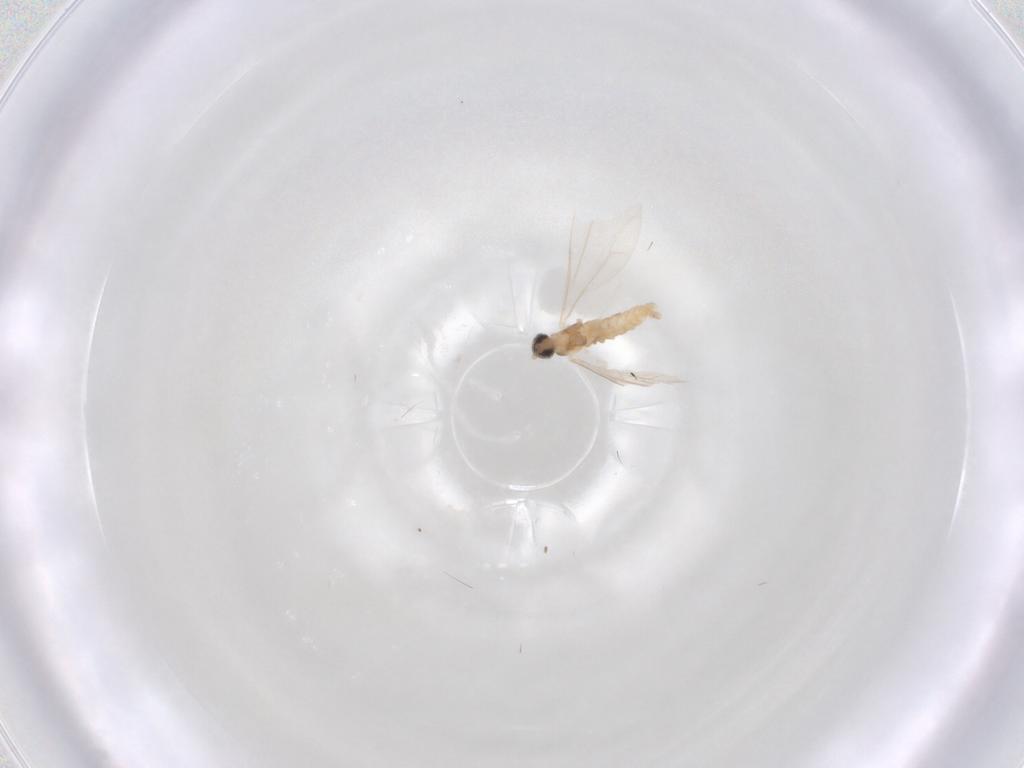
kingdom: Animalia
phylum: Arthropoda
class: Insecta
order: Diptera
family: Cecidomyiidae
